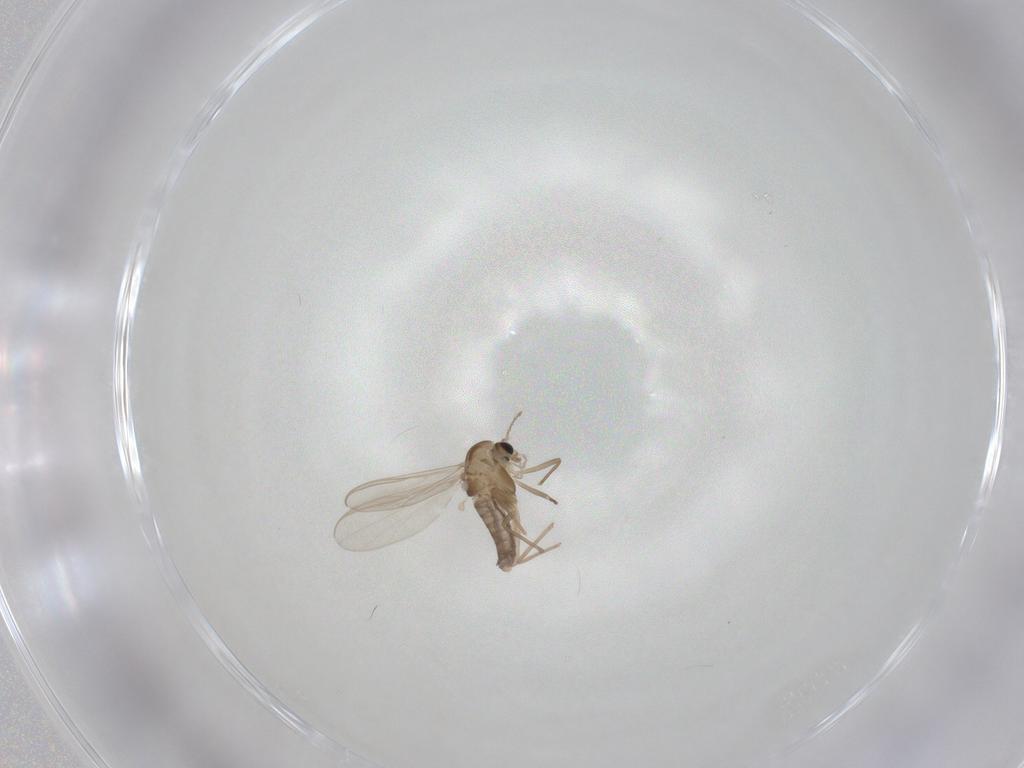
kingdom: Animalia
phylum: Arthropoda
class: Insecta
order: Diptera
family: Chironomidae
